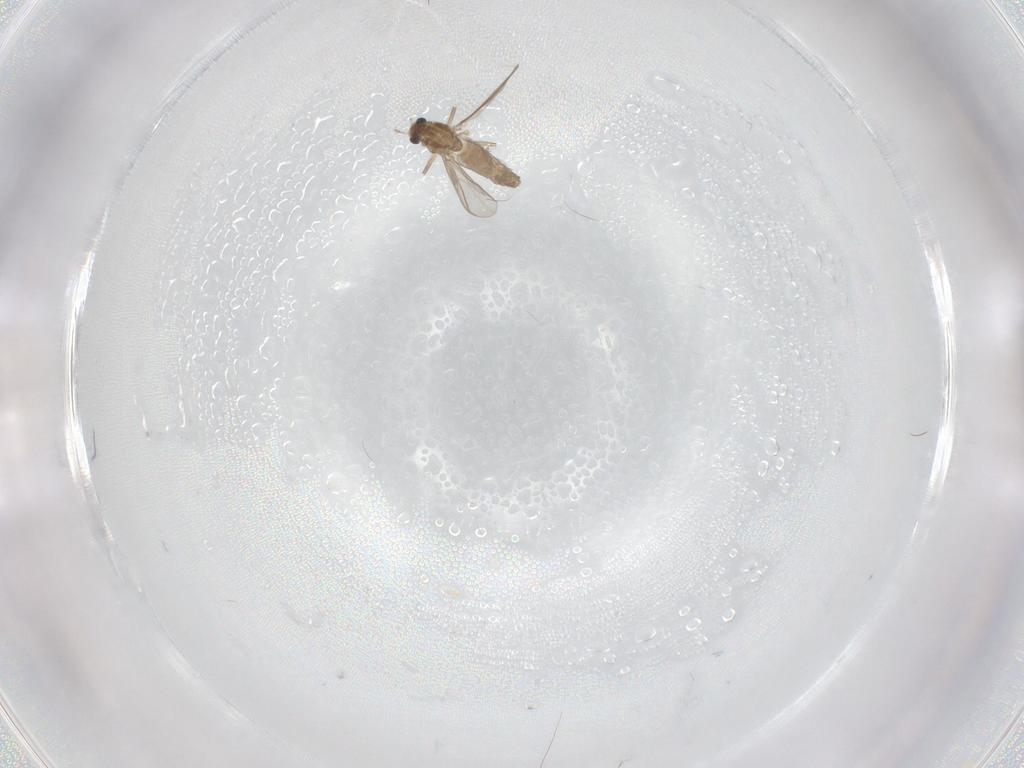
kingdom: Animalia
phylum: Arthropoda
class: Insecta
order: Diptera
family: Chironomidae
